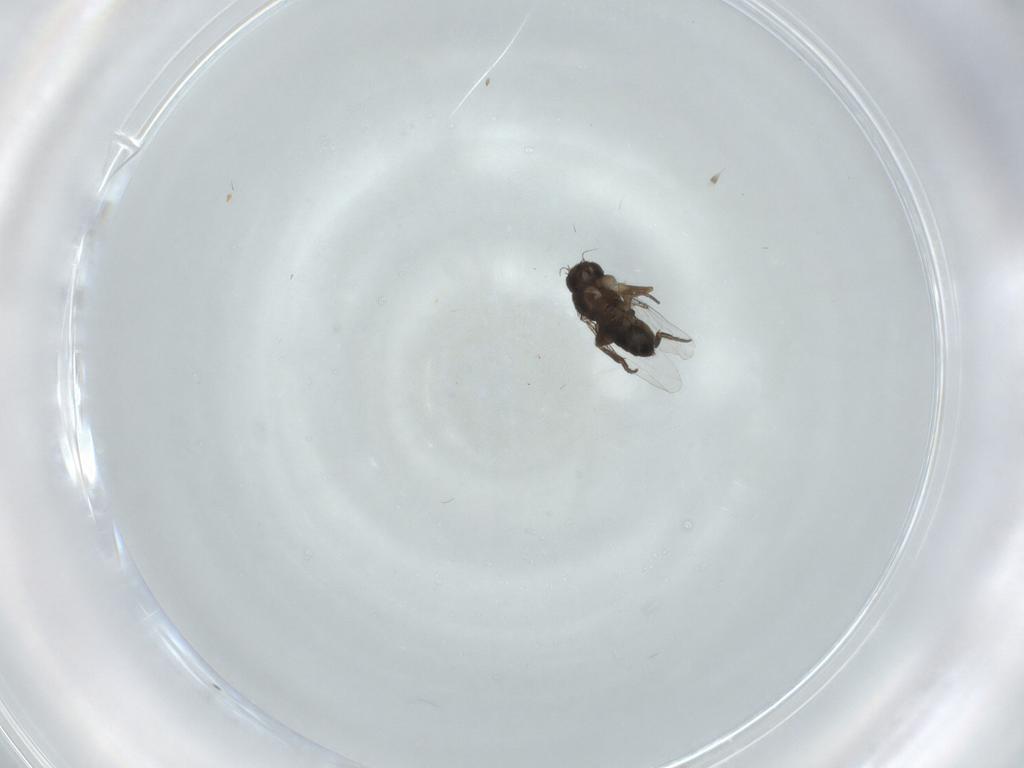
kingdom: Animalia
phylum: Arthropoda
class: Insecta
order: Diptera
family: Phoridae
